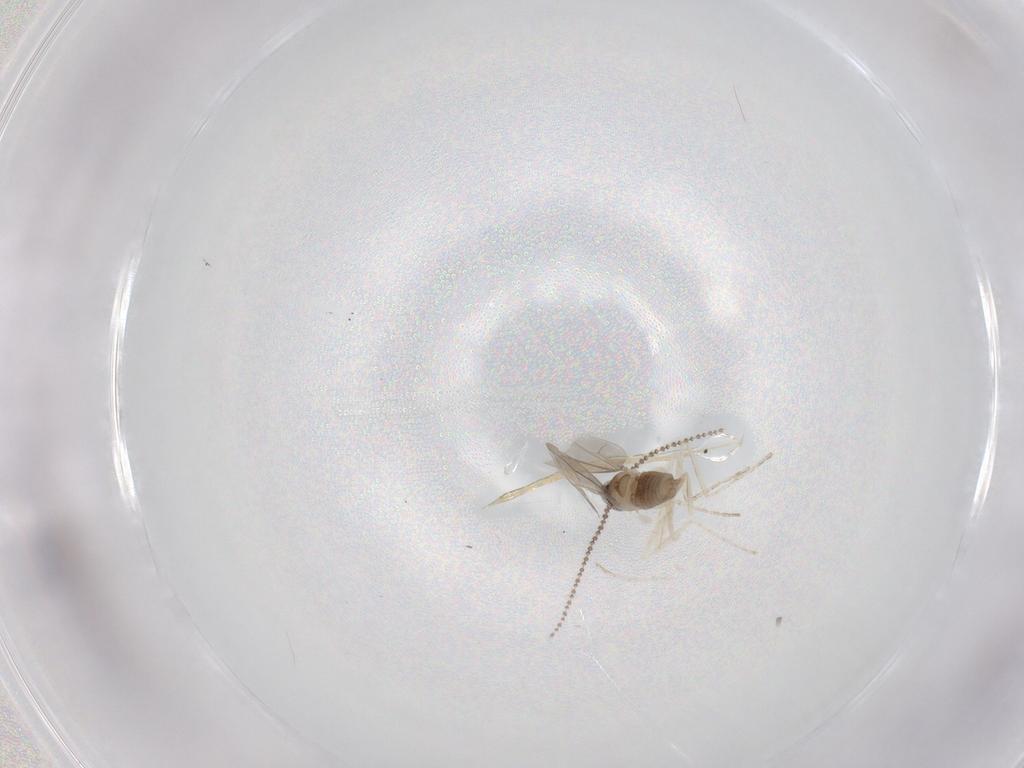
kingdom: Animalia
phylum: Arthropoda
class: Insecta
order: Diptera
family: Cecidomyiidae
